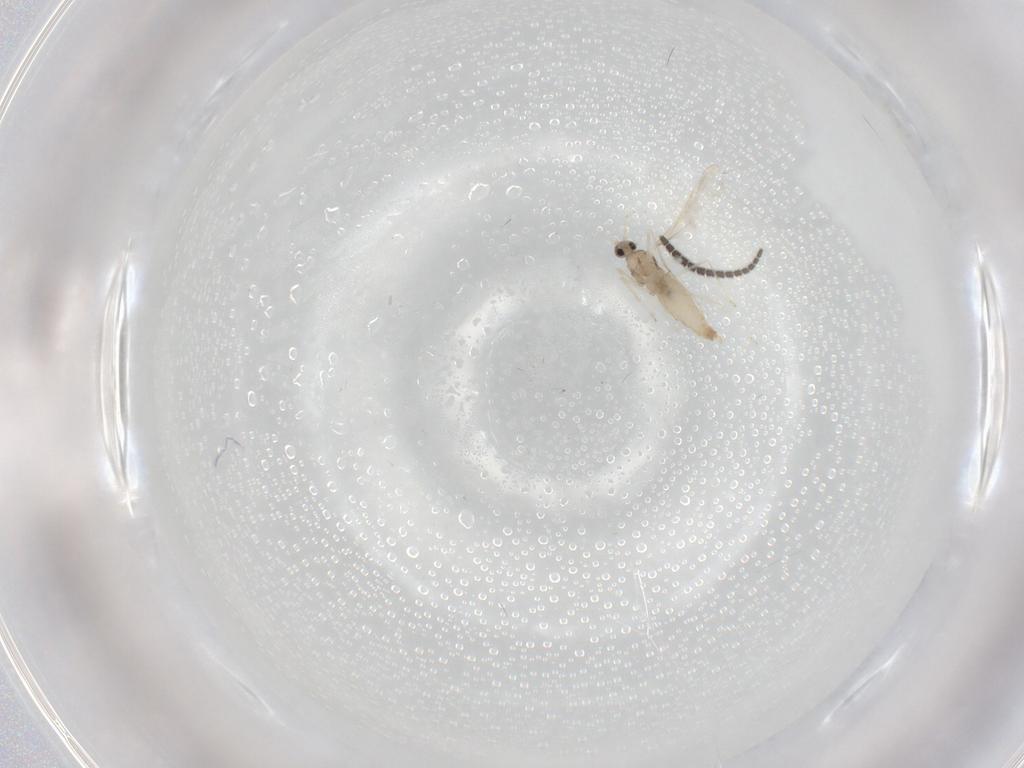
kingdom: Animalia
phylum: Arthropoda
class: Insecta
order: Diptera
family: Cecidomyiidae
